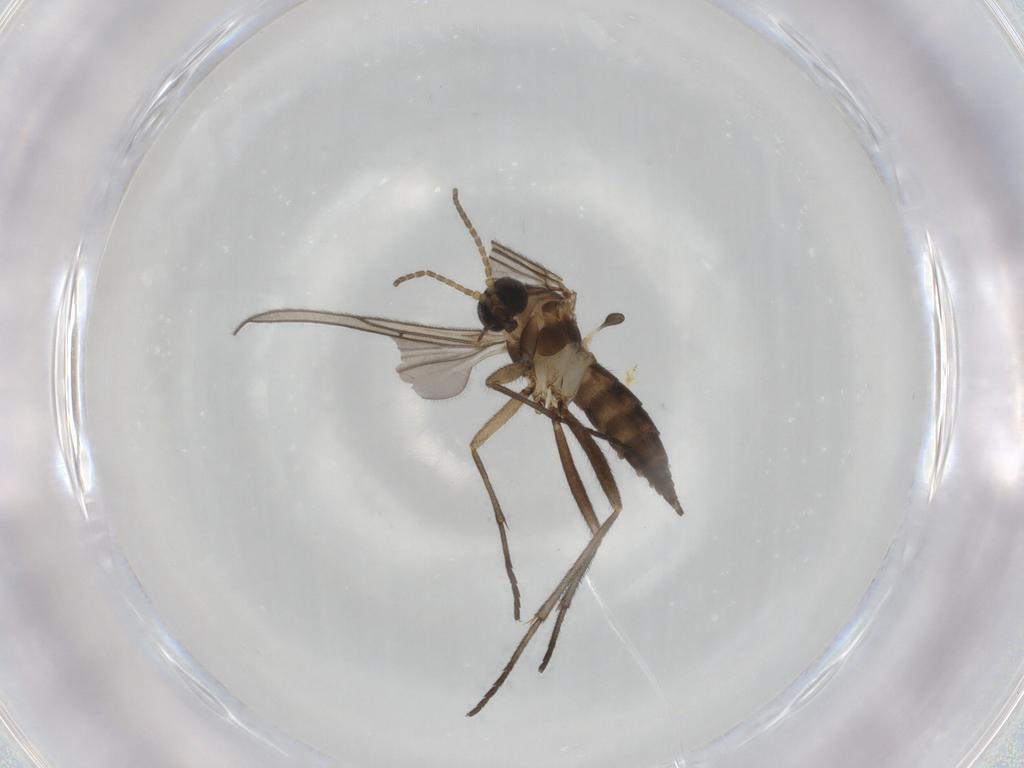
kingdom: Animalia
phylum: Arthropoda
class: Insecta
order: Diptera
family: Sciaridae
